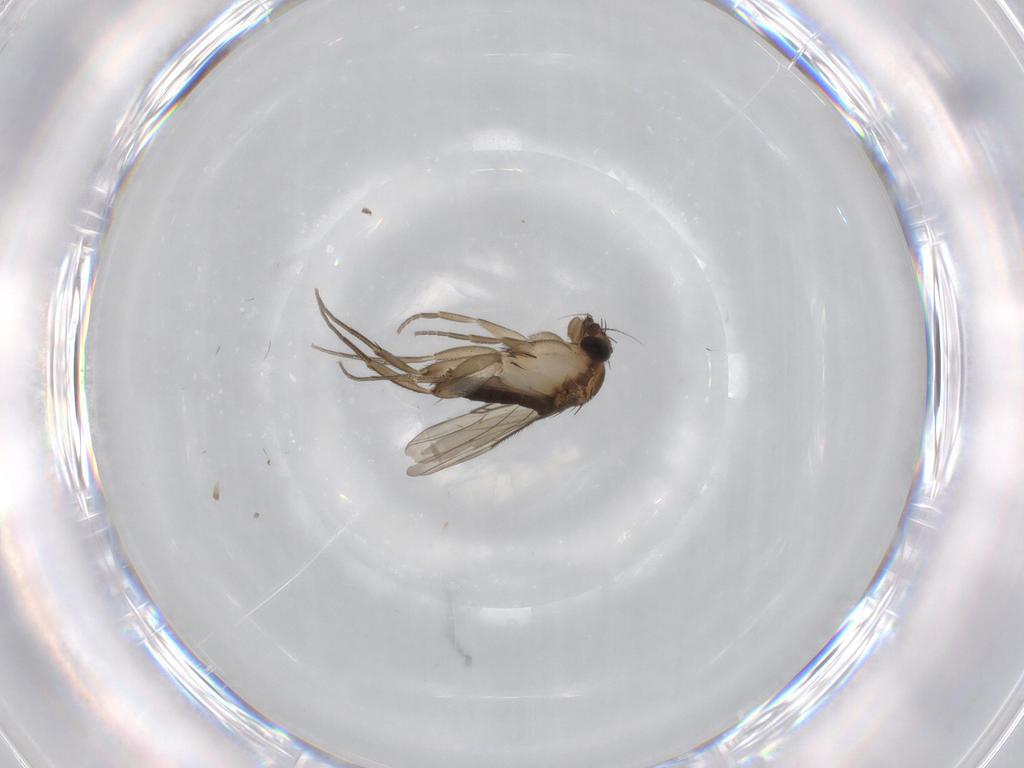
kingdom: Animalia
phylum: Arthropoda
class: Insecta
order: Diptera
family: Phoridae
